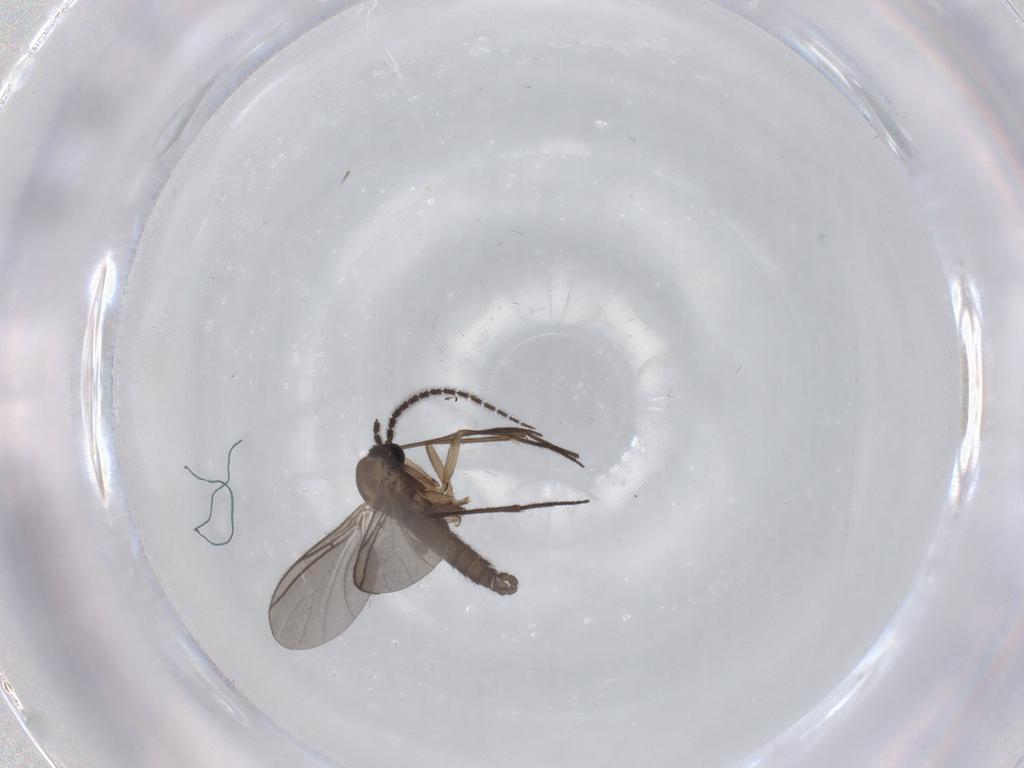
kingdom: Animalia
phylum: Arthropoda
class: Insecta
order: Diptera
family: Sciaridae
